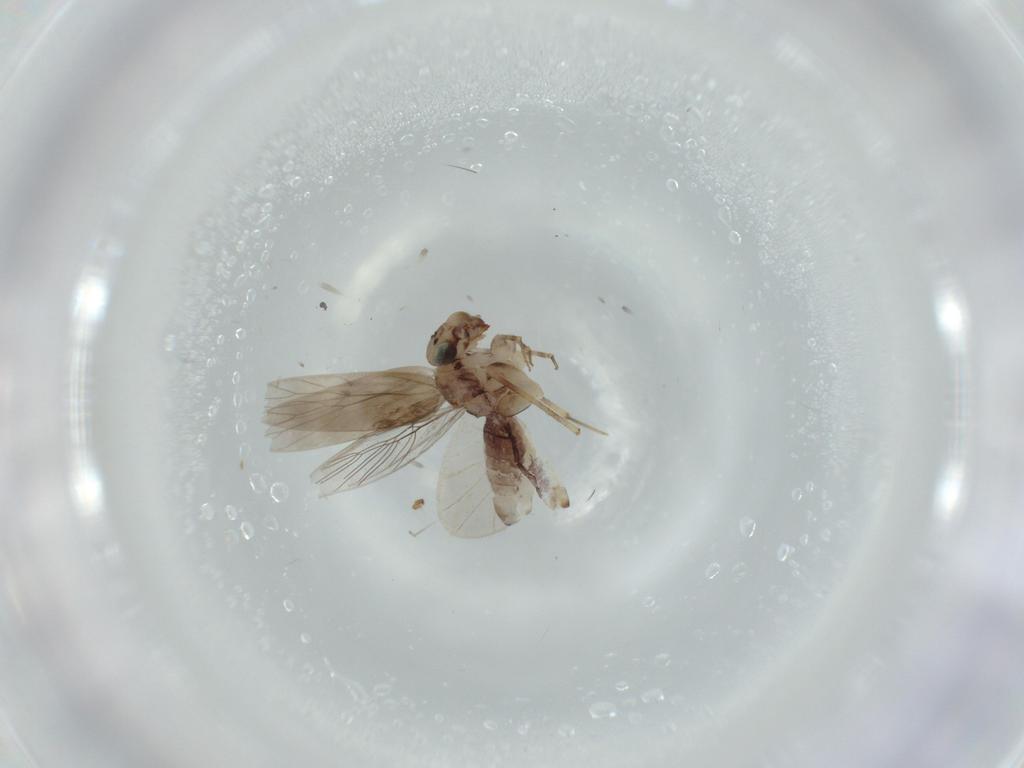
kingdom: Animalia
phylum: Arthropoda
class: Insecta
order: Psocodea
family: Lepidopsocidae
